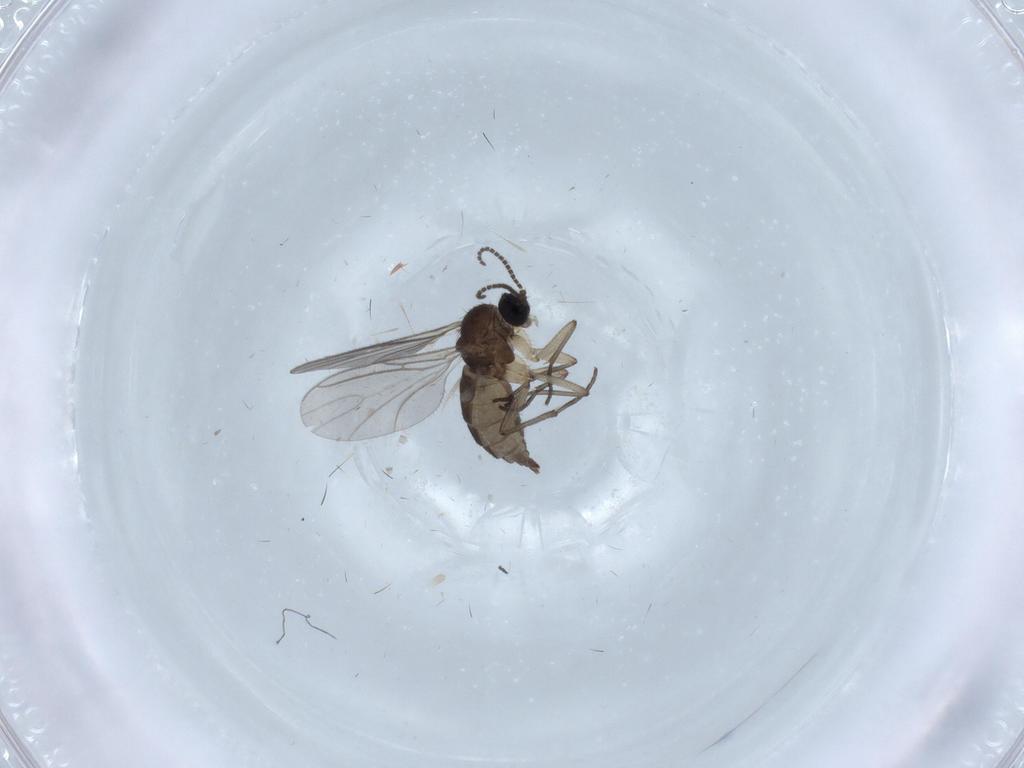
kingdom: Animalia
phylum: Arthropoda
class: Insecta
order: Diptera
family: Sciaridae
